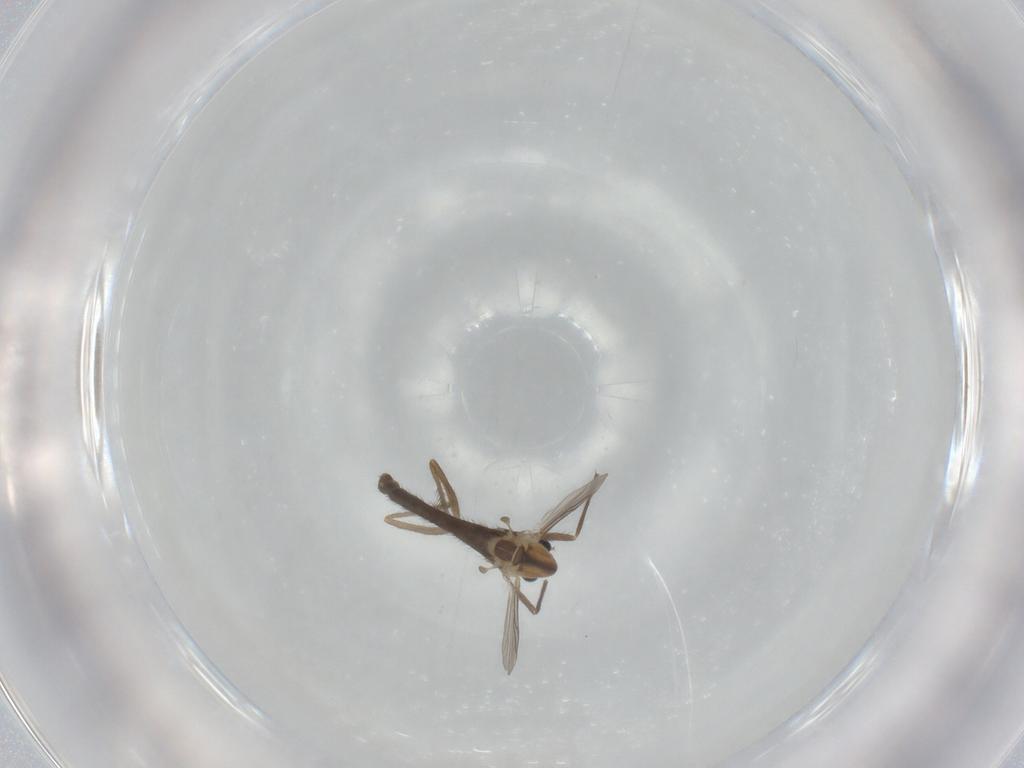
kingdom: Animalia
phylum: Arthropoda
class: Insecta
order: Diptera
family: Chironomidae
